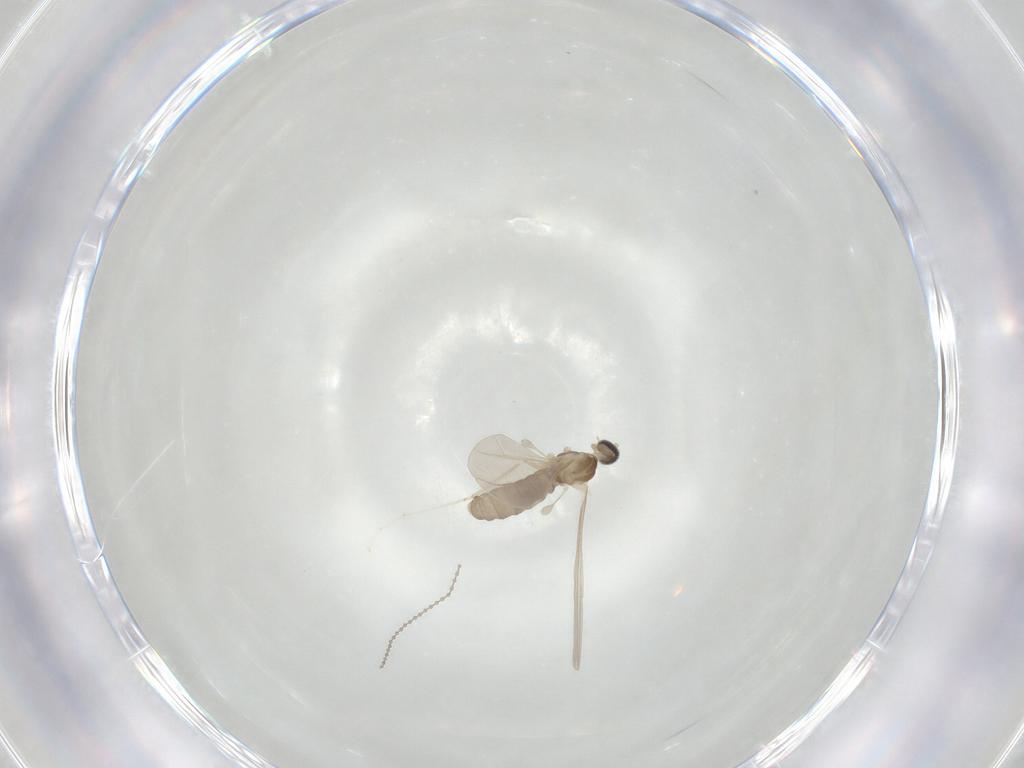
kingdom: Animalia
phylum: Arthropoda
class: Insecta
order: Diptera
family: Cecidomyiidae
